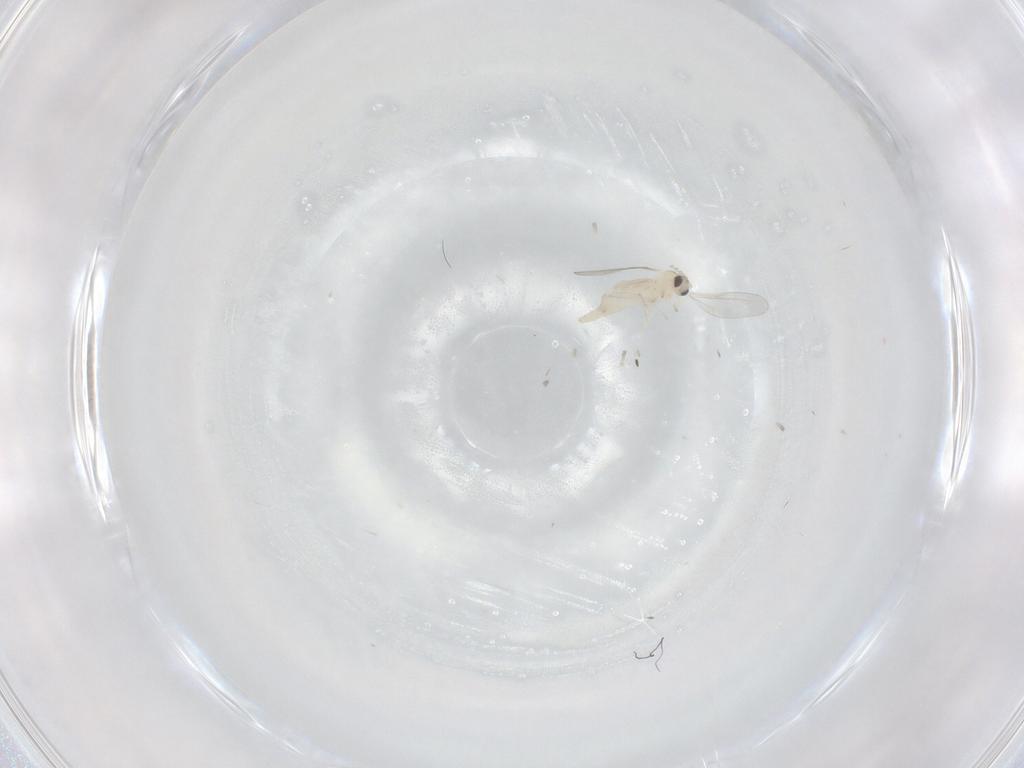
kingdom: Animalia
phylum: Arthropoda
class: Insecta
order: Diptera
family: Cecidomyiidae
